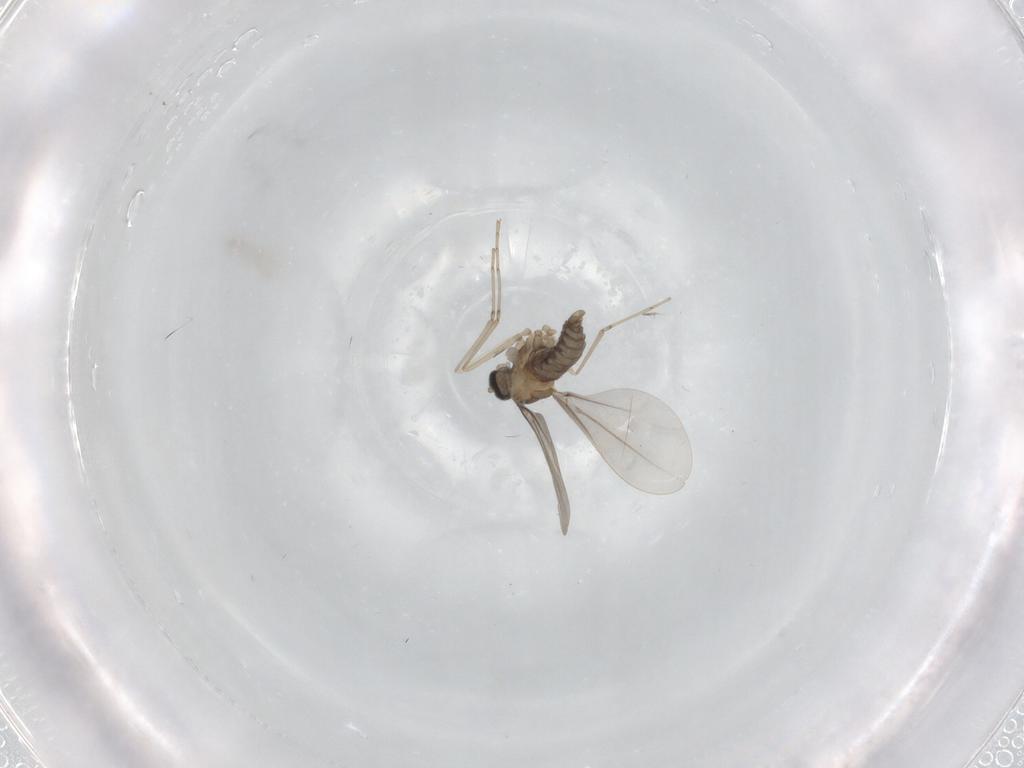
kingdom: Animalia
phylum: Arthropoda
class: Insecta
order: Diptera
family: Cecidomyiidae
